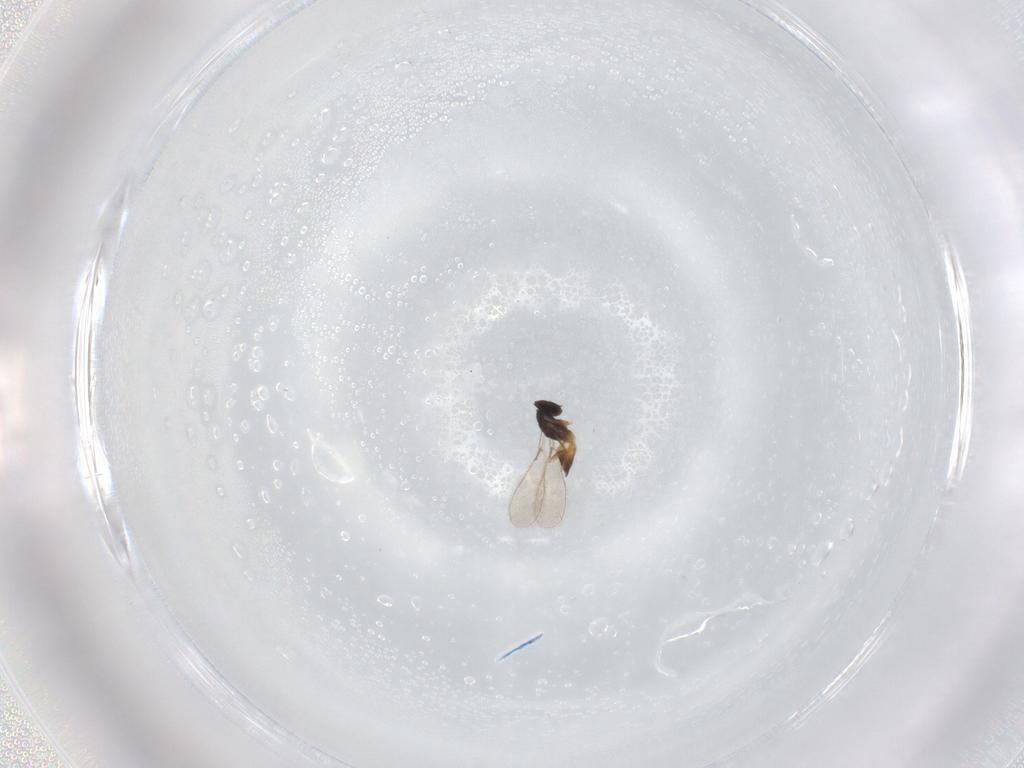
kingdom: Animalia
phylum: Arthropoda
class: Insecta
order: Hymenoptera
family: Mymaridae
